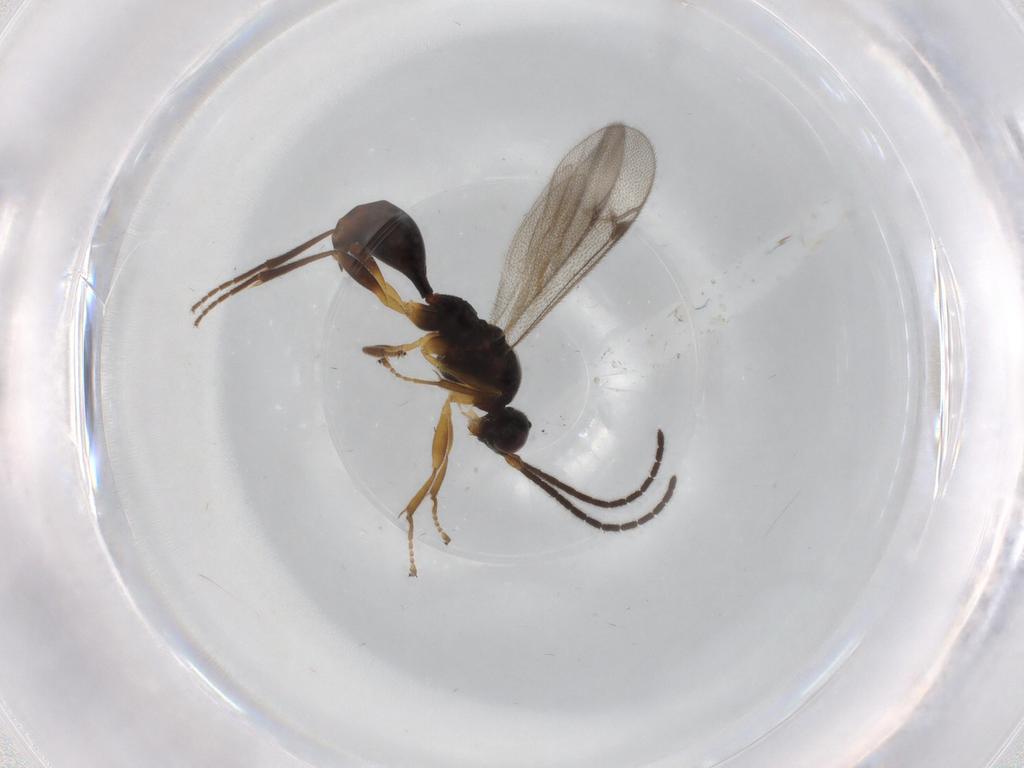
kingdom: Animalia
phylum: Arthropoda
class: Insecta
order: Hymenoptera
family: Proctotrupidae
